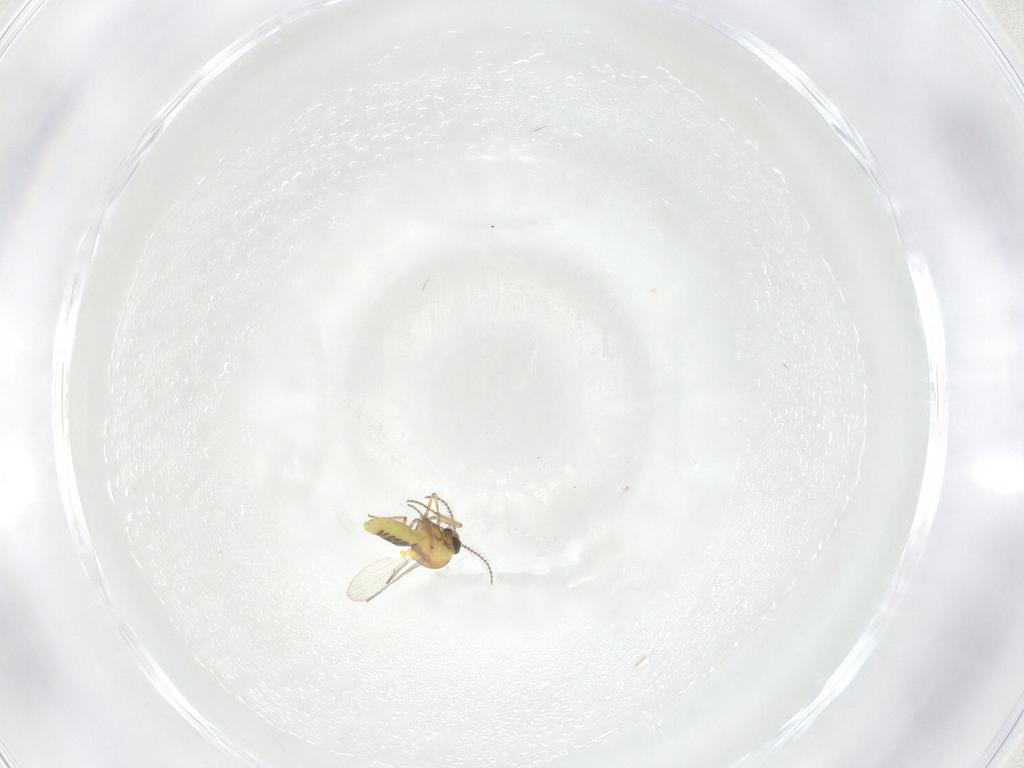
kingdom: Animalia
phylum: Arthropoda
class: Insecta
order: Diptera
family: Ceratopogonidae
